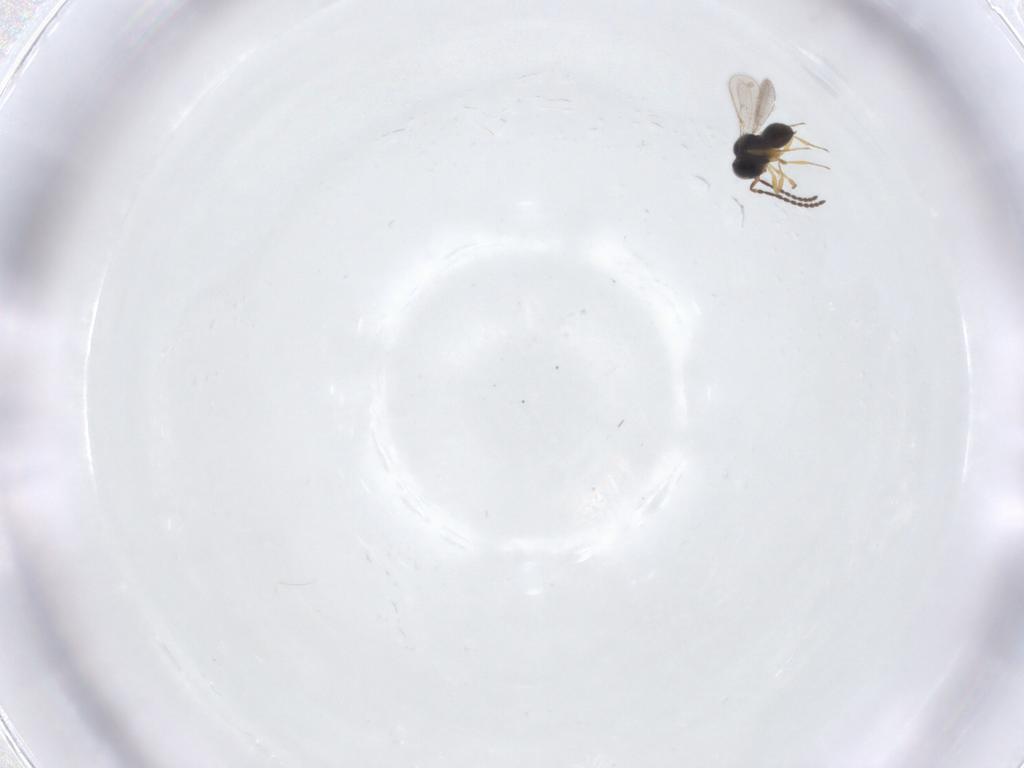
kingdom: Animalia
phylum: Arthropoda
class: Insecta
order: Hymenoptera
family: Scelionidae
